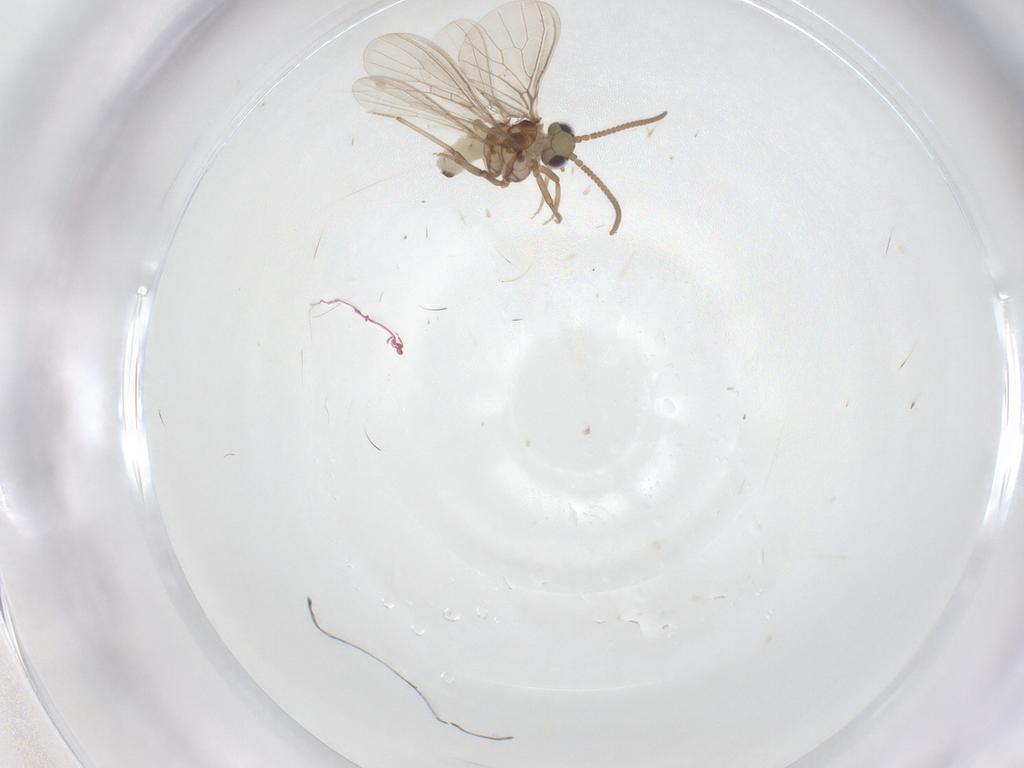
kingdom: Animalia
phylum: Arthropoda
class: Insecta
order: Neuroptera
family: Coniopterygidae
